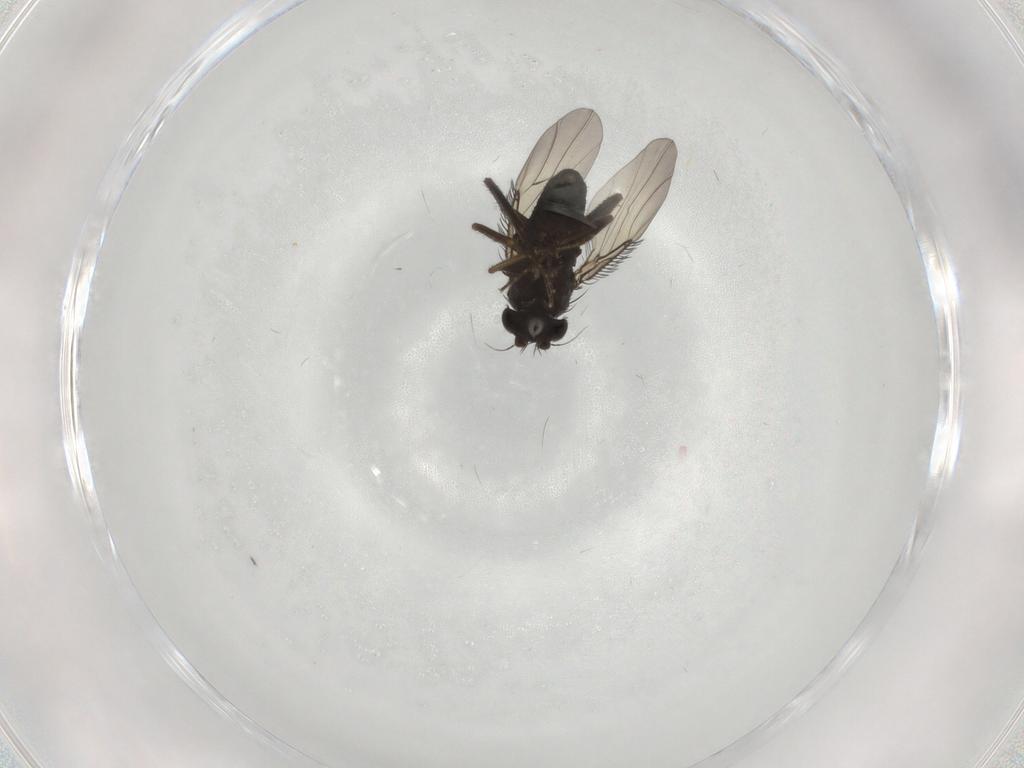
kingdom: Animalia
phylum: Arthropoda
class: Insecta
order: Diptera
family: Phoridae
